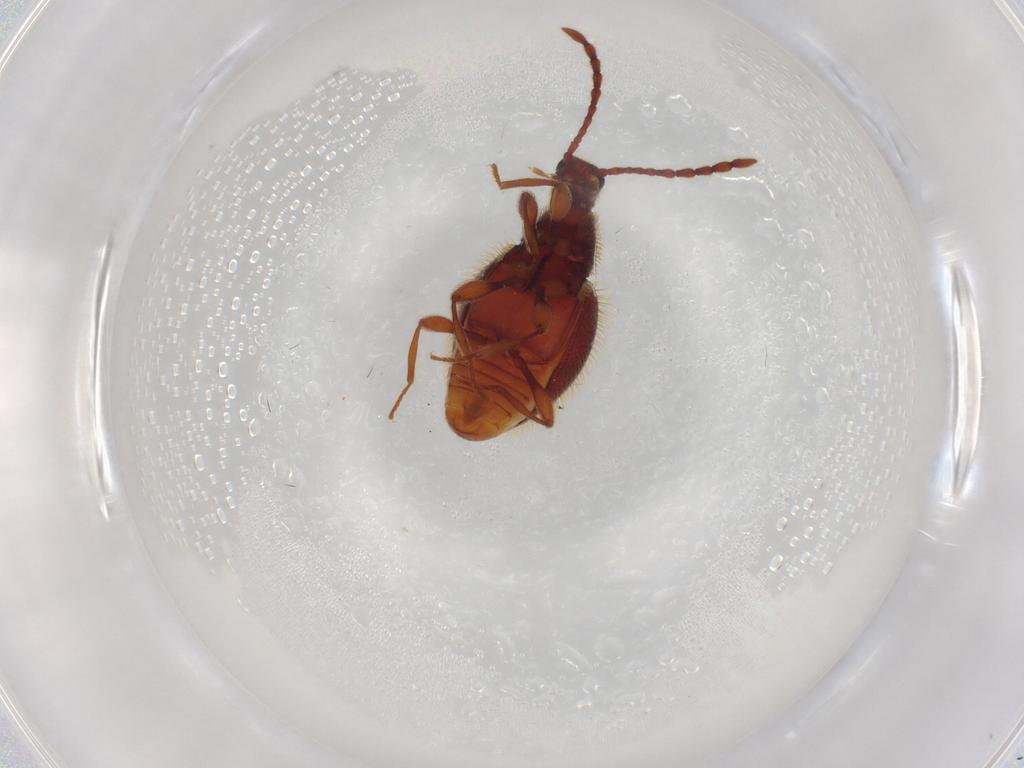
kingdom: Animalia
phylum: Arthropoda
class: Insecta
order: Coleoptera
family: Staphylinidae
